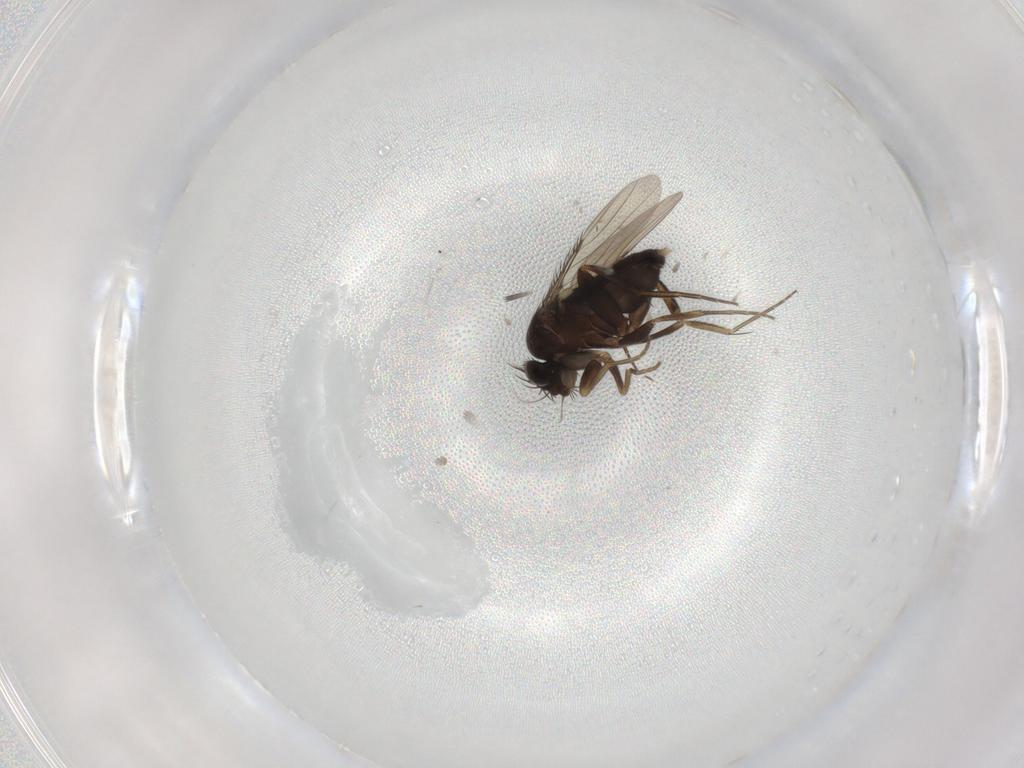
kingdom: Animalia
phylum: Arthropoda
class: Insecta
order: Diptera
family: Phoridae
